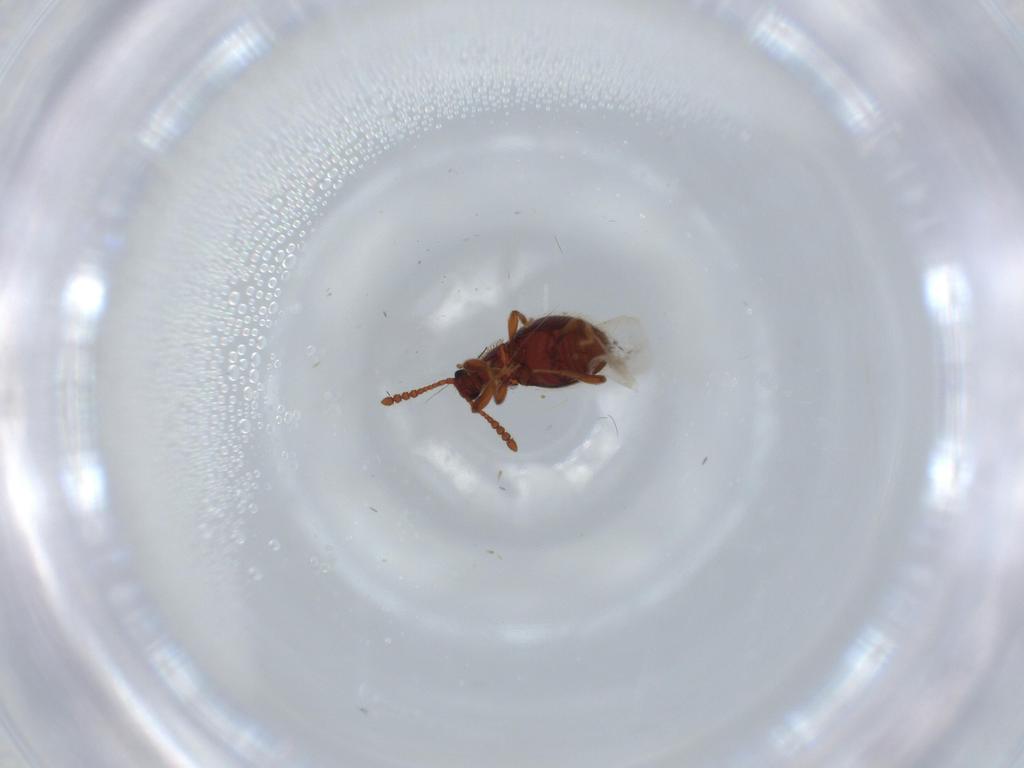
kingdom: Animalia
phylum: Arthropoda
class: Insecta
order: Coleoptera
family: Staphylinidae
